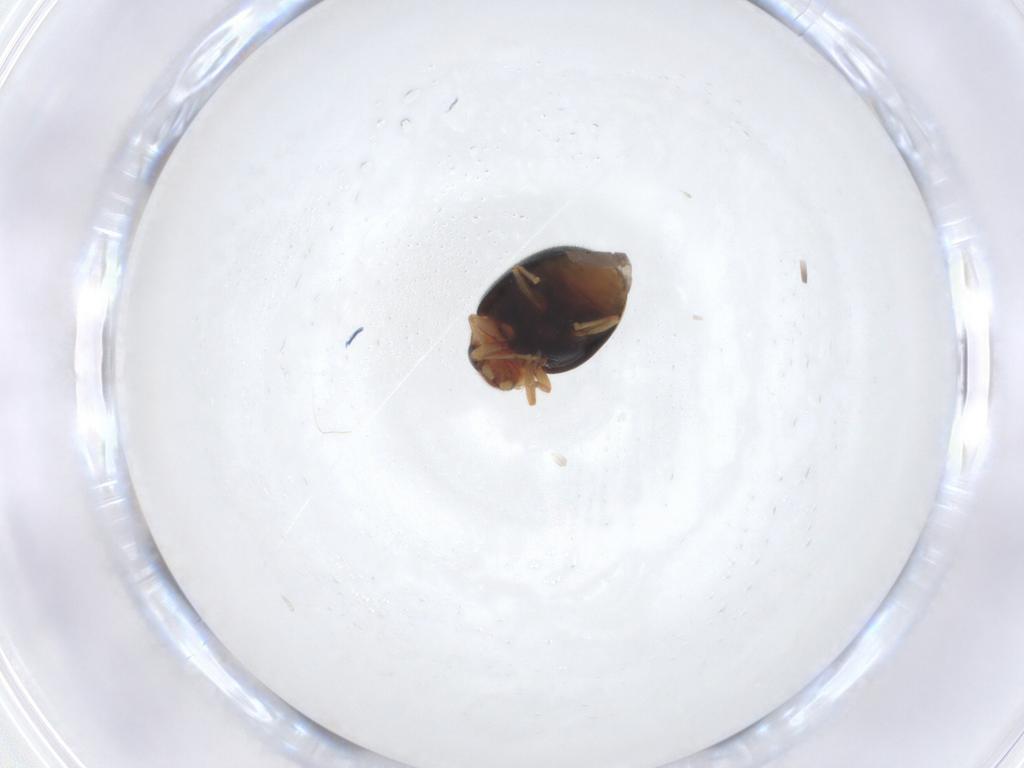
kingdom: Animalia
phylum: Arthropoda
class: Insecta
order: Coleoptera
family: Coccinellidae
